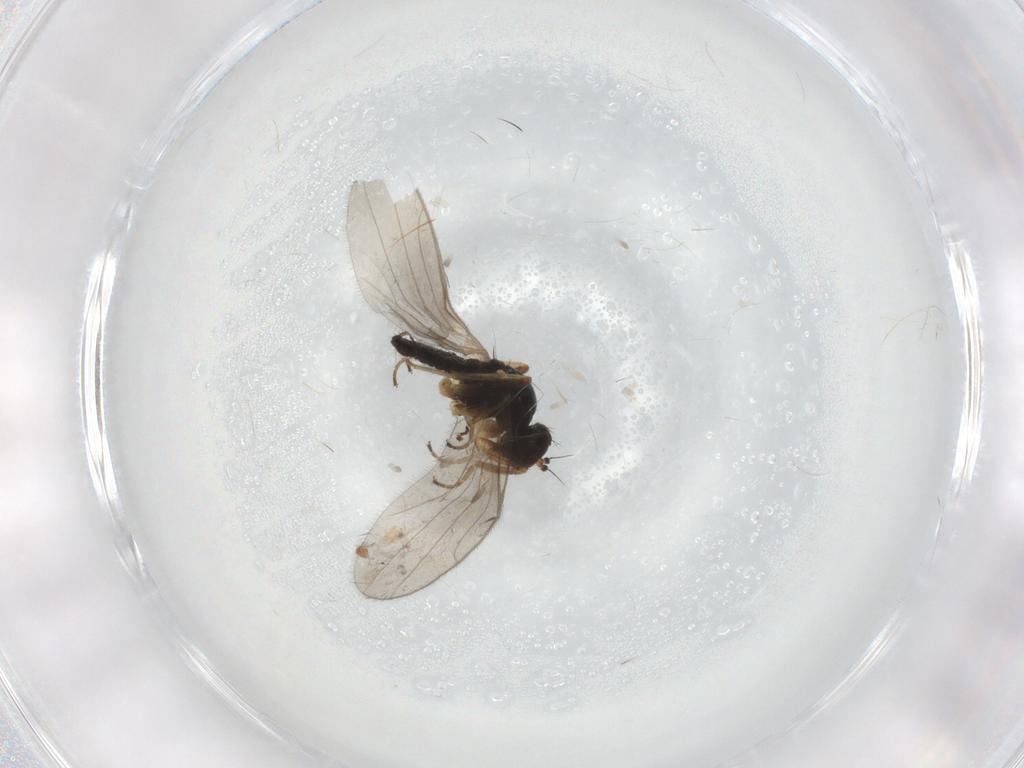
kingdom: Animalia
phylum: Arthropoda
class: Insecta
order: Diptera
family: Hybotidae
